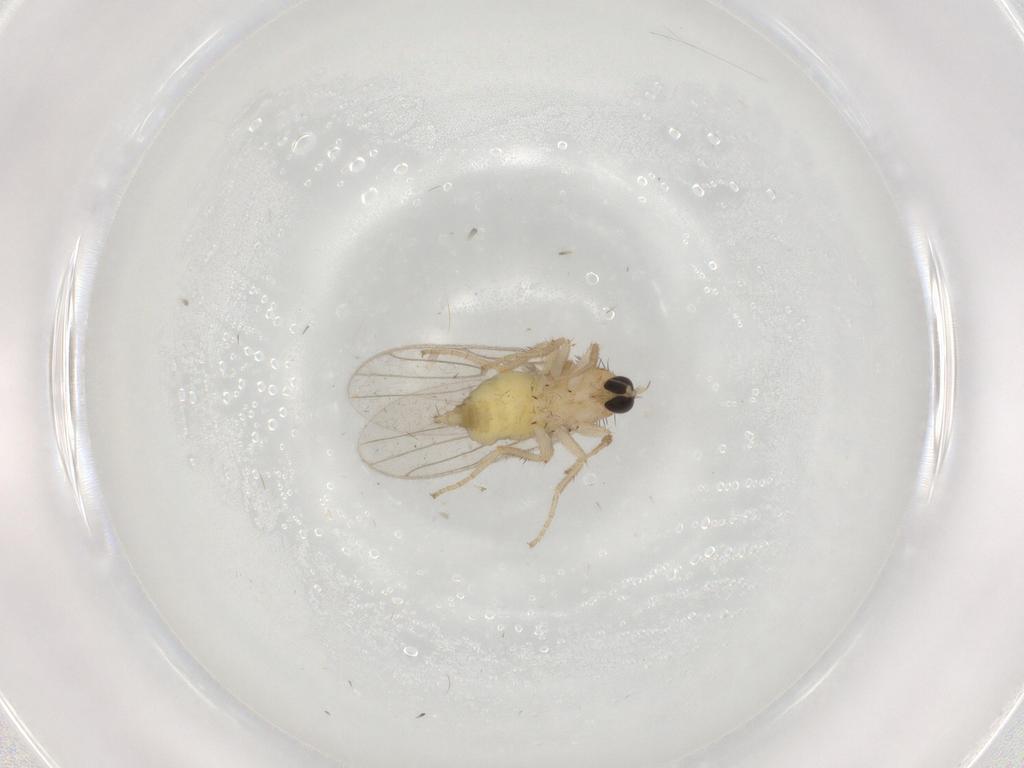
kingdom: Animalia
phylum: Arthropoda
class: Insecta
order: Diptera
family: Hybotidae
